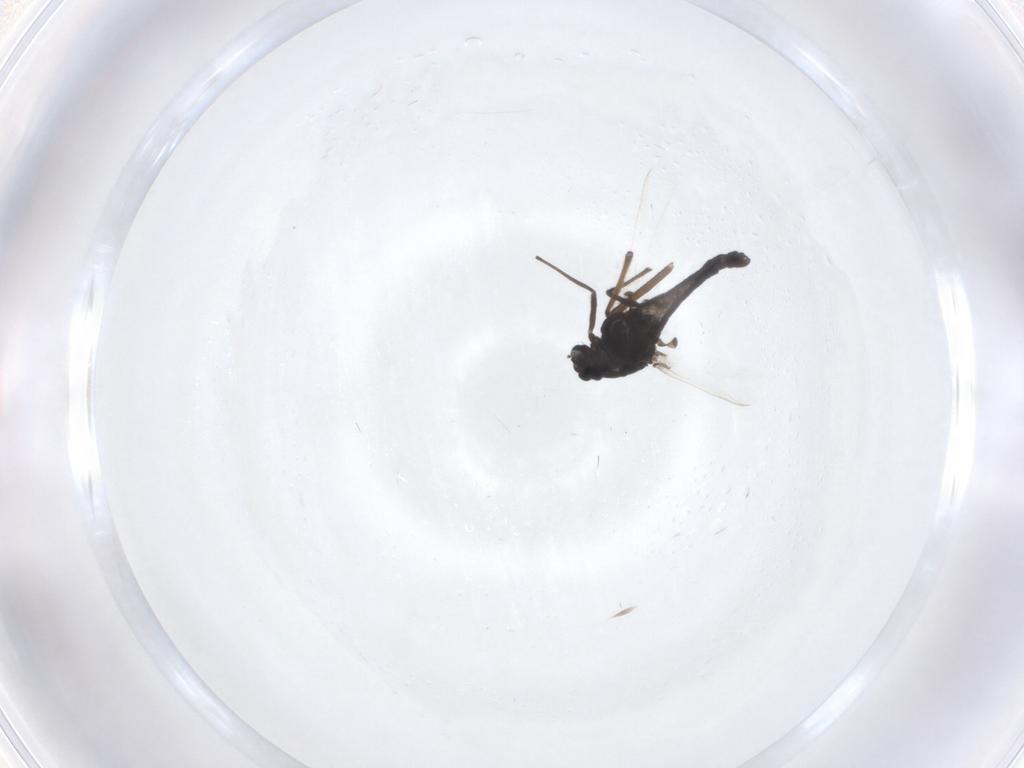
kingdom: Animalia
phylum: Arthropoda
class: Insecta
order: Diptera
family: Chironomidae
